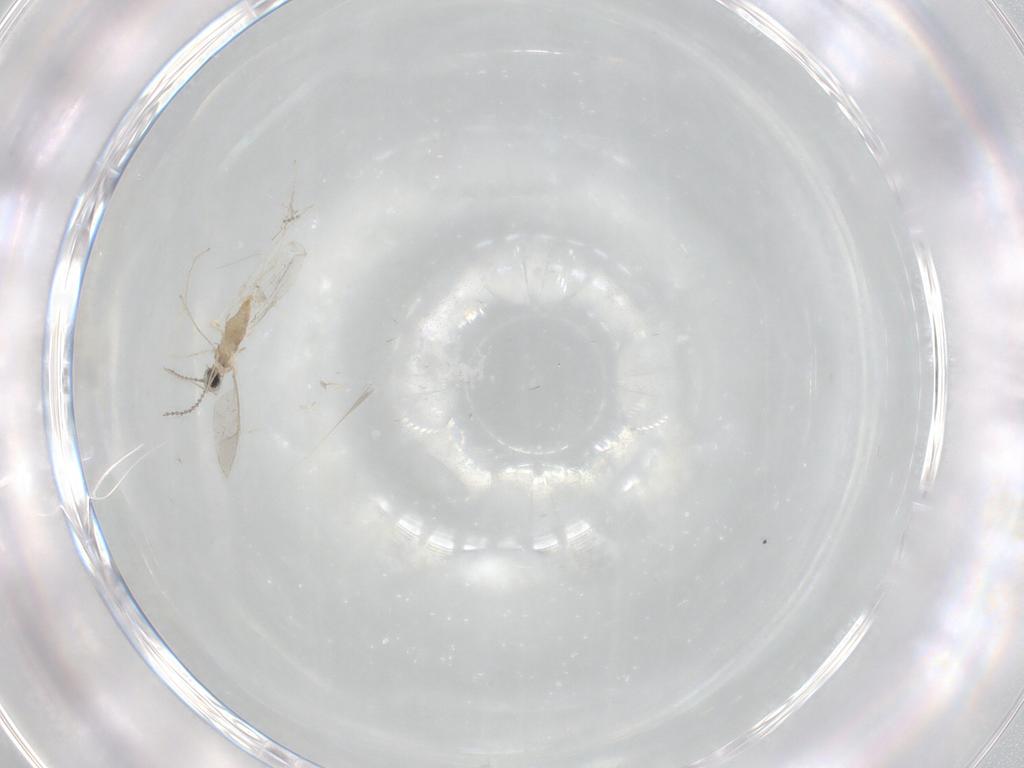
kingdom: Animalia
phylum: Arthropoda
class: Insecta
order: Diptera
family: Cecidomyiidae
